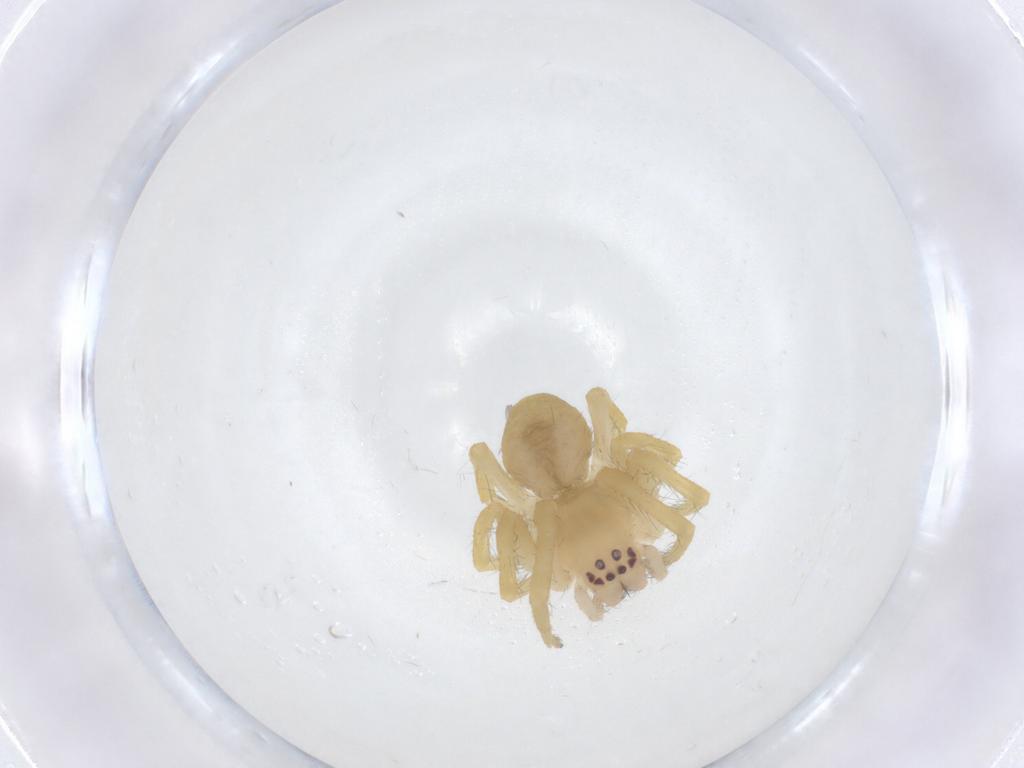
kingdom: Animalia
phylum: Arthropoda
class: Arachnida
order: Araneae
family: Mimetidae
